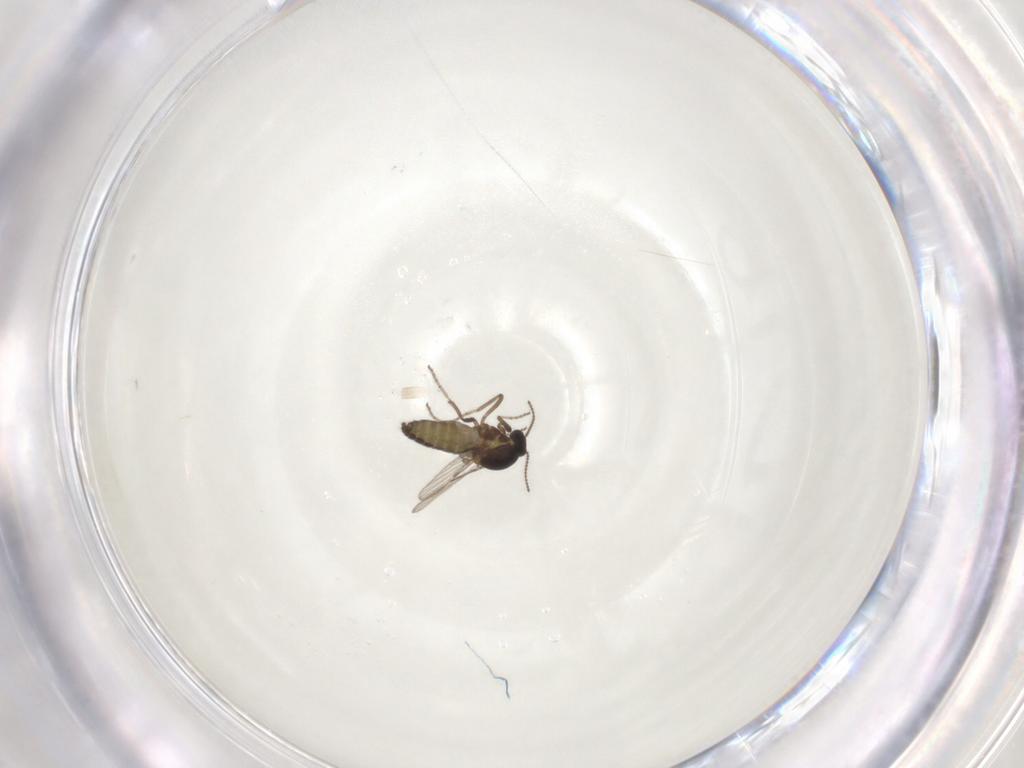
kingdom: Animalia
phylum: Arthropoda
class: Insecta
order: Diptera
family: Ceratopogonidae
